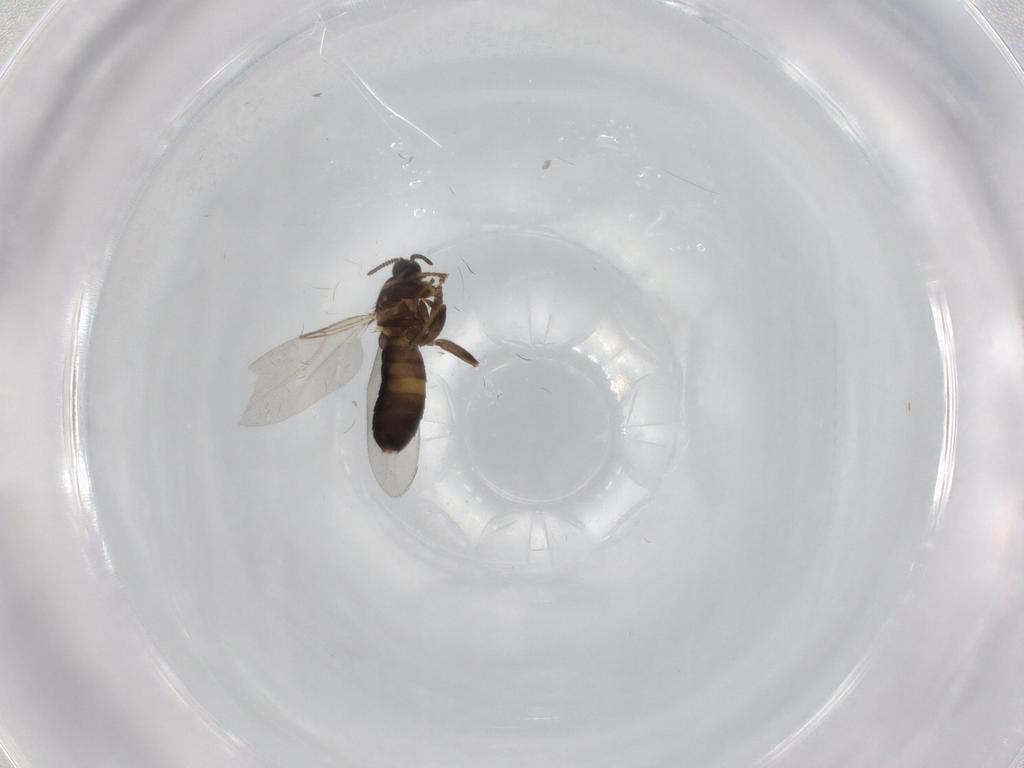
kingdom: Animalia
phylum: Arthropoda
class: Insecta
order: Diptera
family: Scatopsidae
